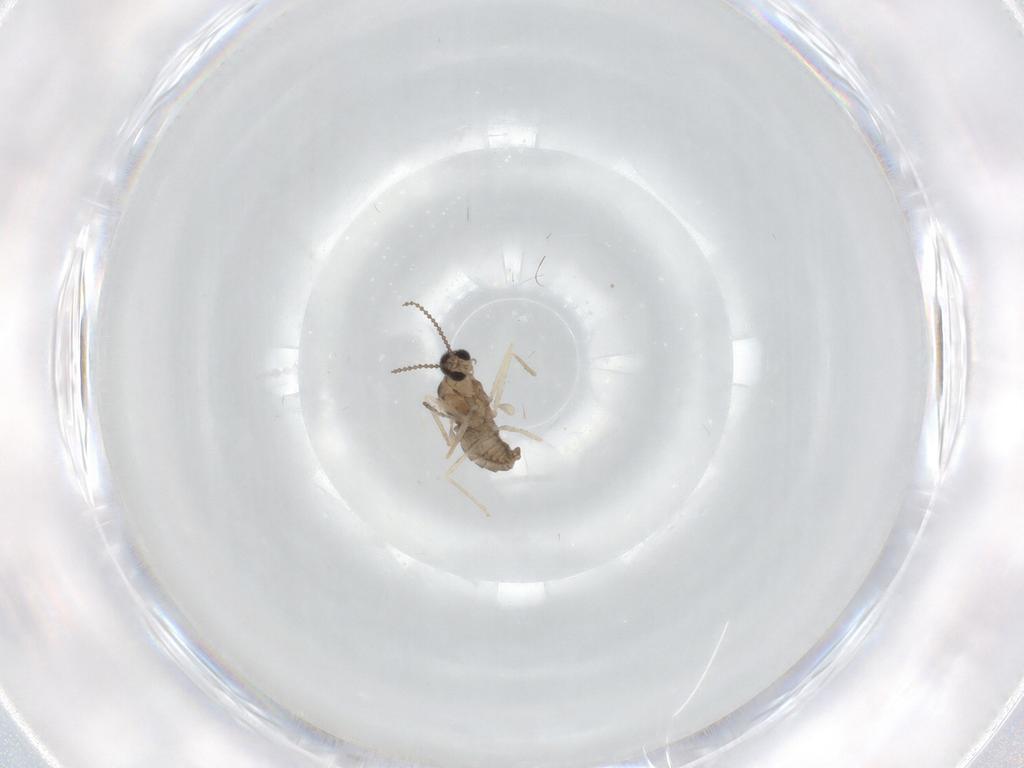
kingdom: Animalia
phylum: Arthropoda
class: Insecta
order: Diptera
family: Cecidomyiidae
